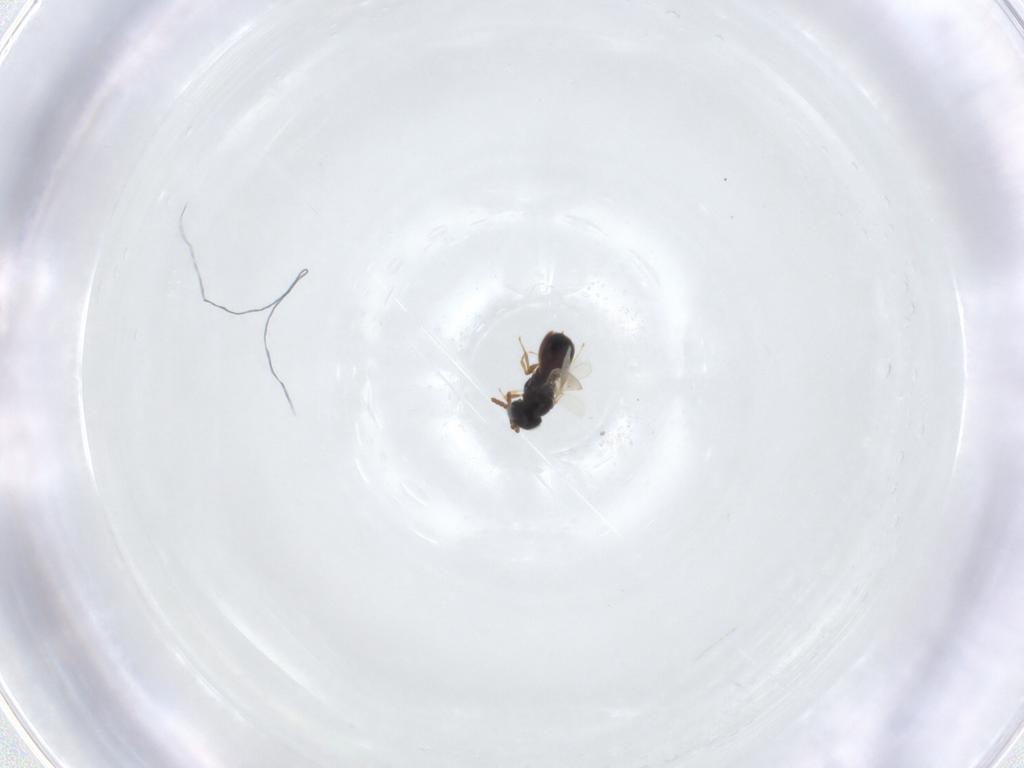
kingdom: Animalia
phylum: Arthropoda
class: Insecta
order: Hymenoptera
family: Scelionidae
